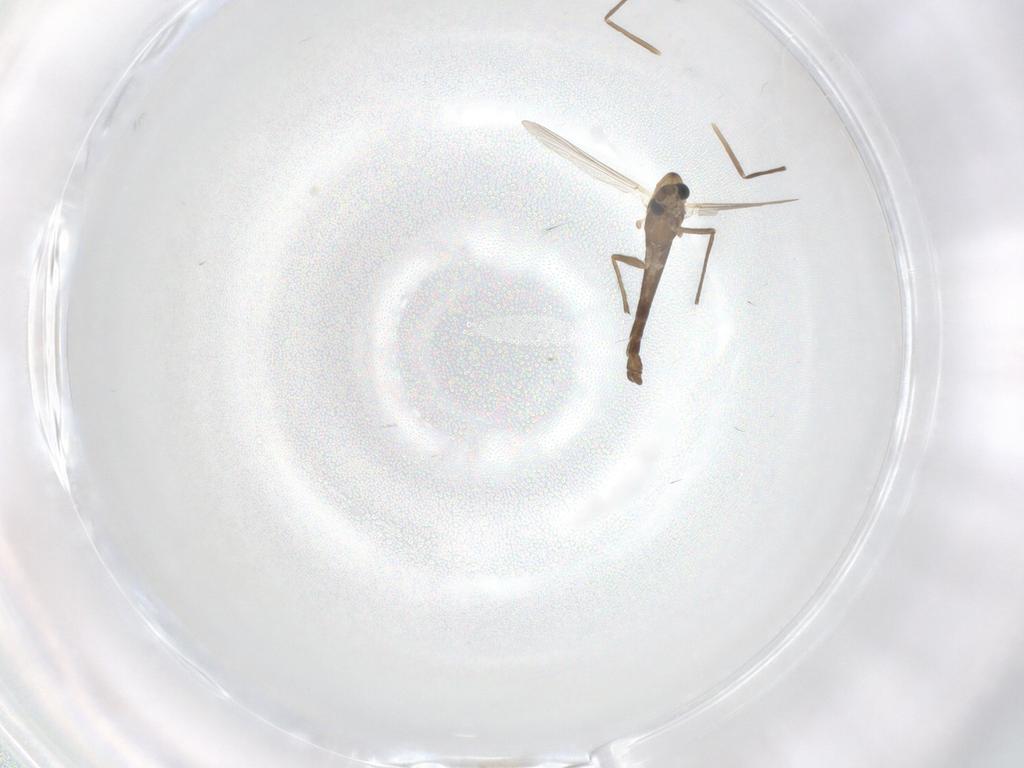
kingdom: Animalia
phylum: Arthropoda
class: Insecta
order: Diptera
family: Chironomidae
